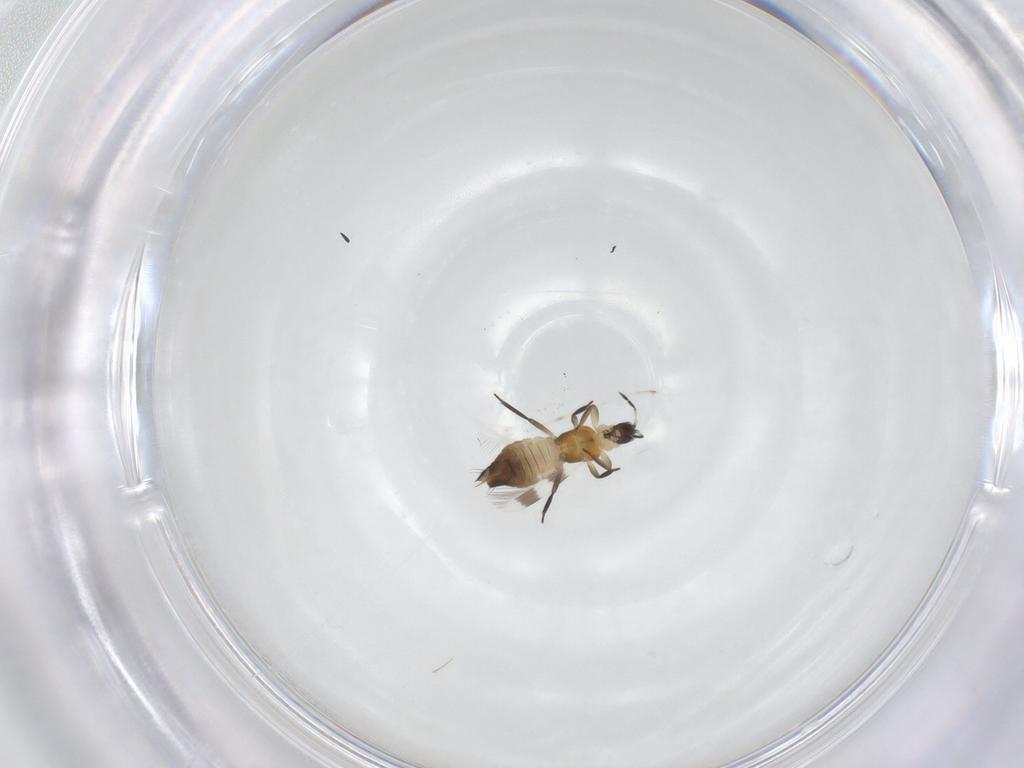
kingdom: Animalia
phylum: Arthropoda
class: Insecta
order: Thysanoptera
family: Aeolothripidae
